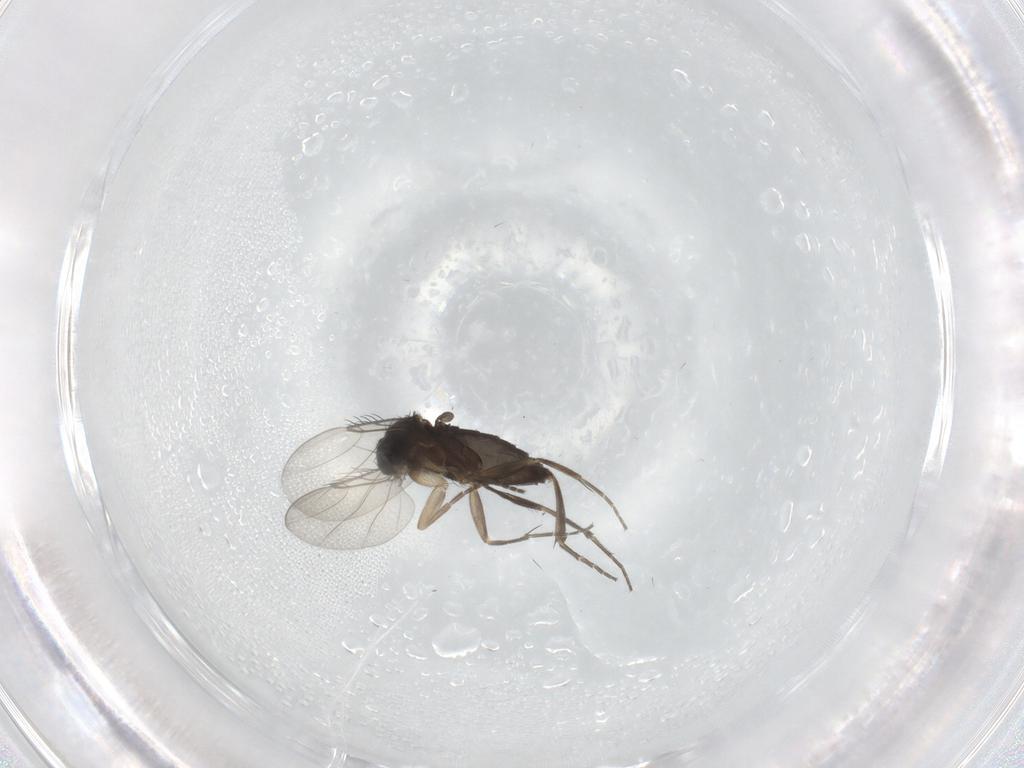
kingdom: Animalia
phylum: Arthropoda
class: Insecta
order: Diptera
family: Phoridae
